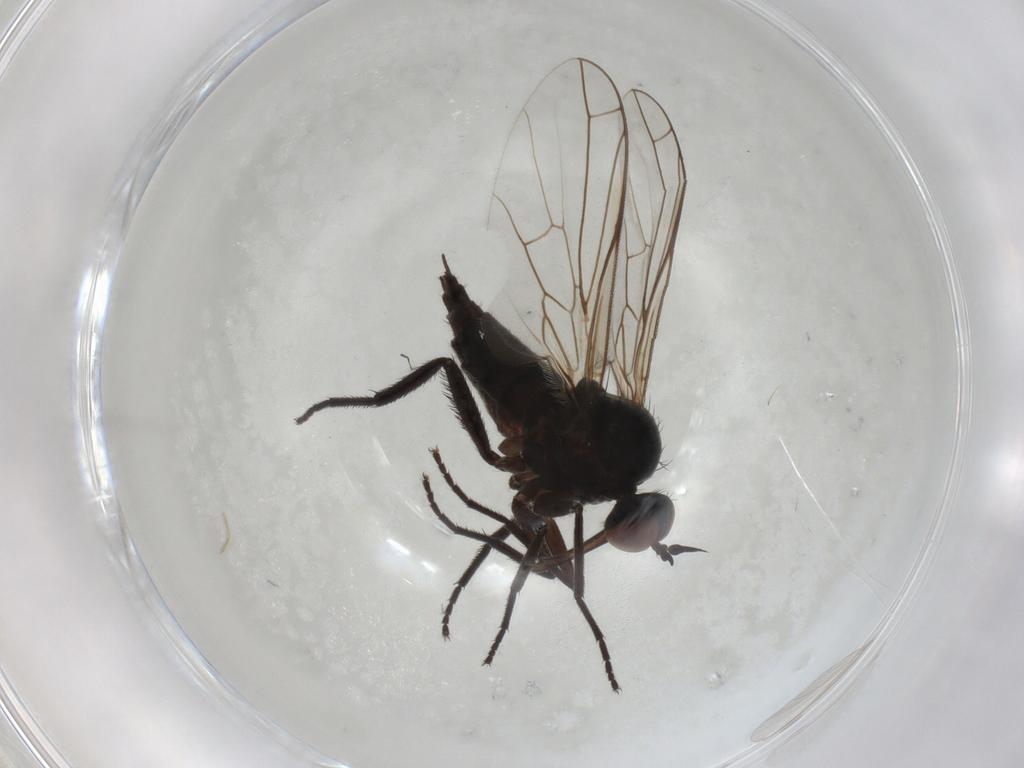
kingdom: Animalia
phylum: Arthropoda
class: Insecta
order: Diptera
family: Empididae
